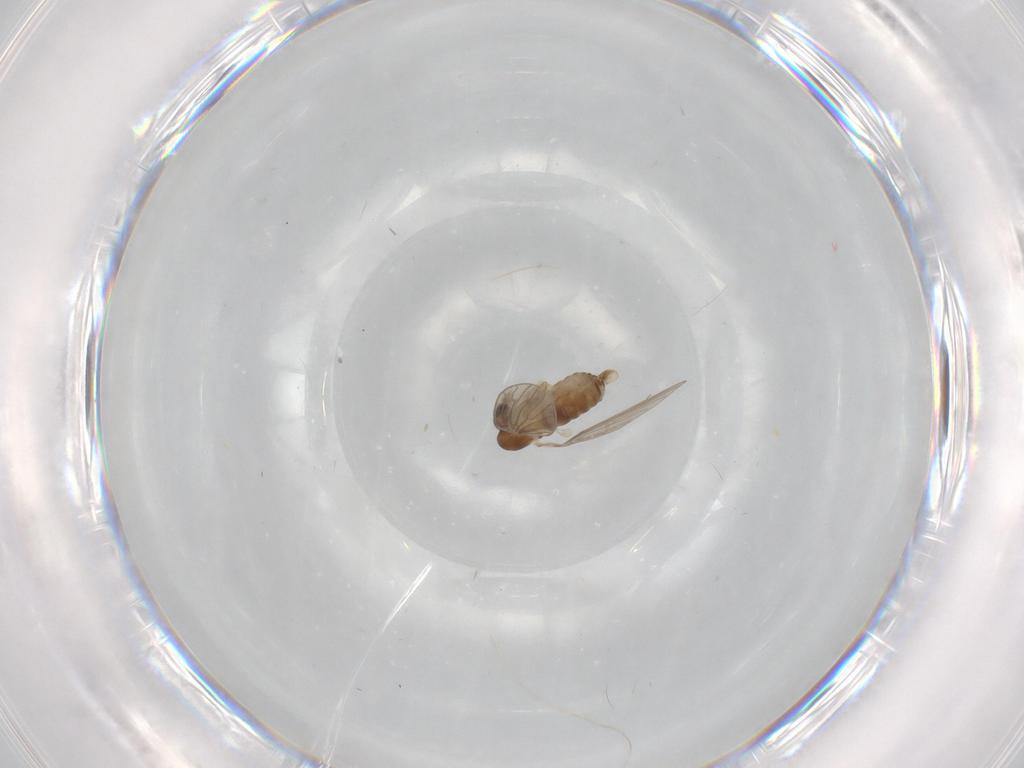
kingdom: Animalia
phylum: Arthropoda
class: Insecta
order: Diptera
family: Psychodidae
